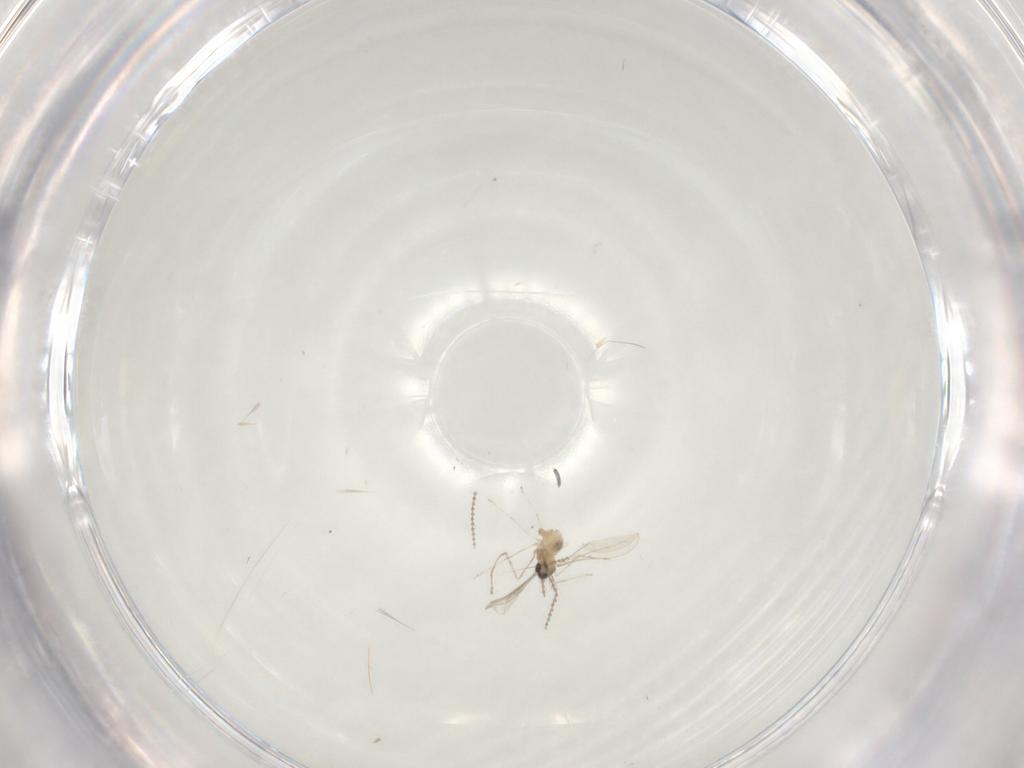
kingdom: Animalia
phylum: Arthropoda
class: Insecta
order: Diptera
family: Cecidomyiidae
